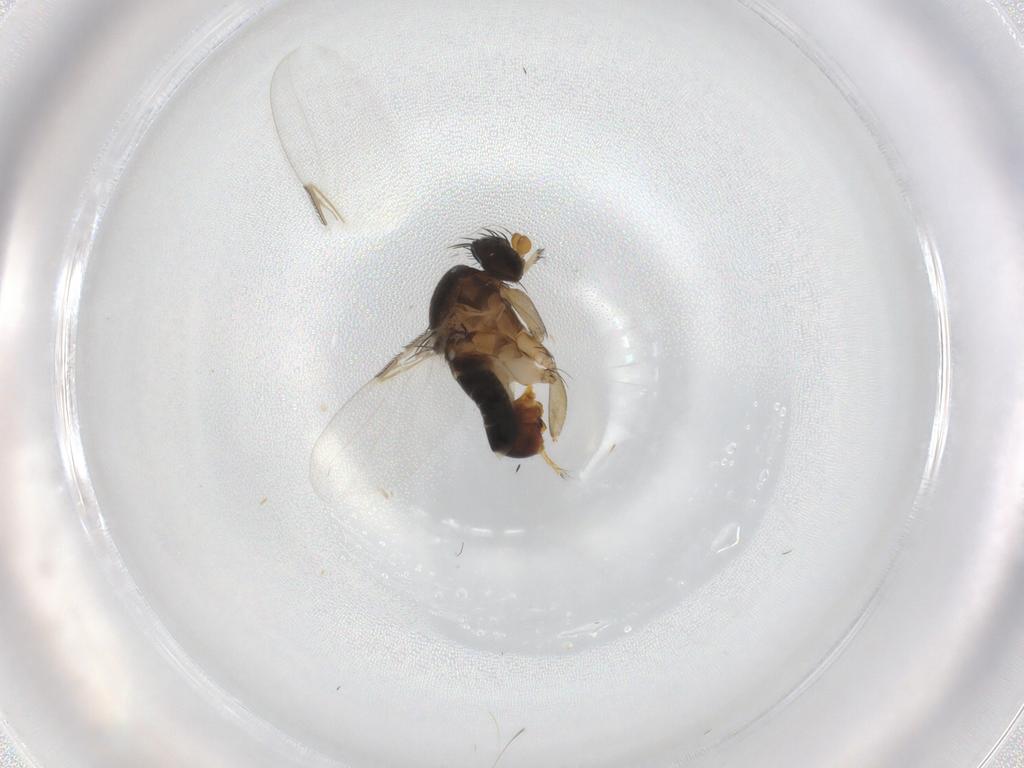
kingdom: Animalia
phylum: Arthropoda
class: Insecta
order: Diptera
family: Phoridae
